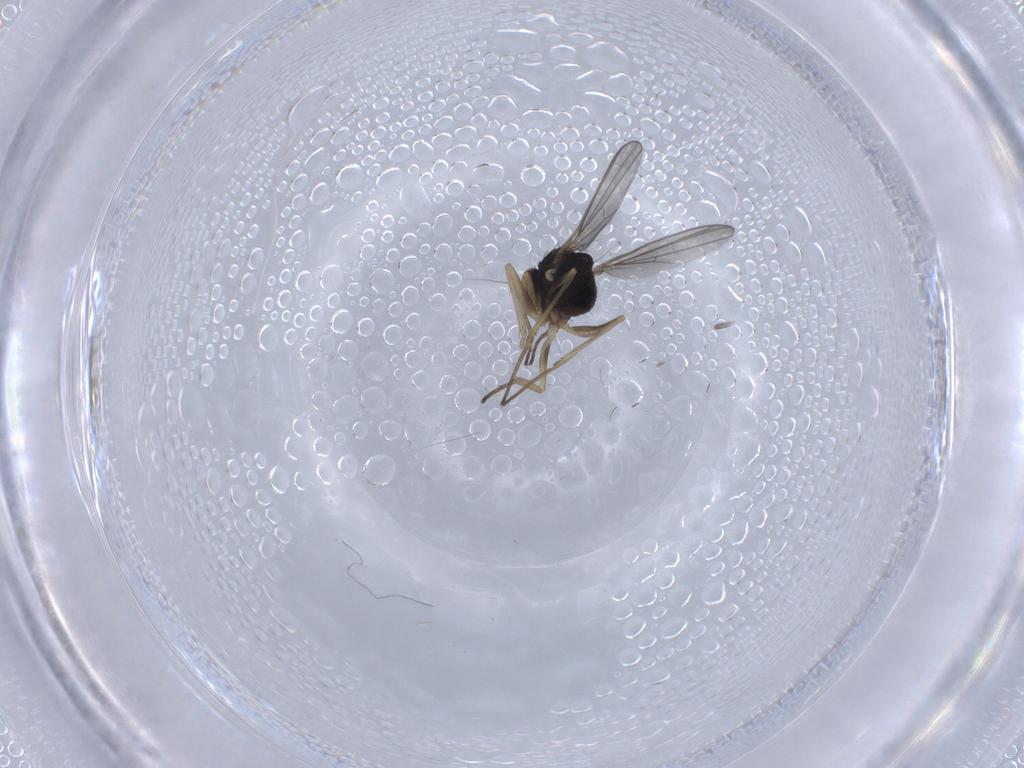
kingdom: Animalia
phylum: Arthropoda
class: Insecta
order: Diptera
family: Dolichopodidae
